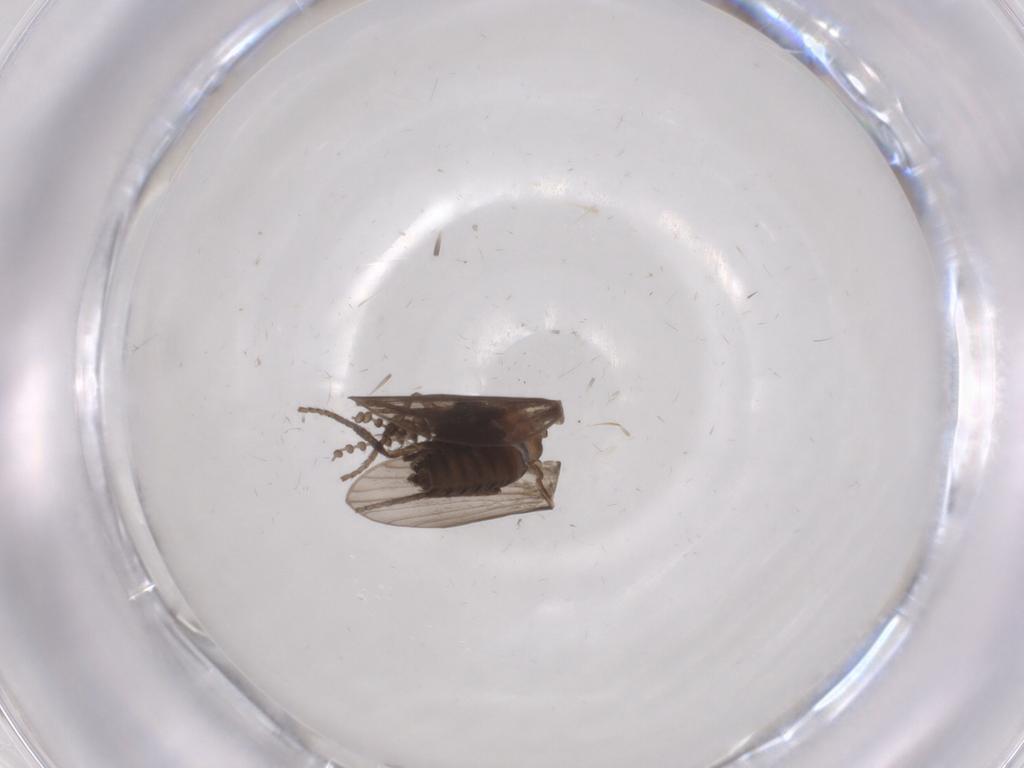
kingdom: Animalia
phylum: Arthropoda
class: Insecta
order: Diptera
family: Psychodidae
